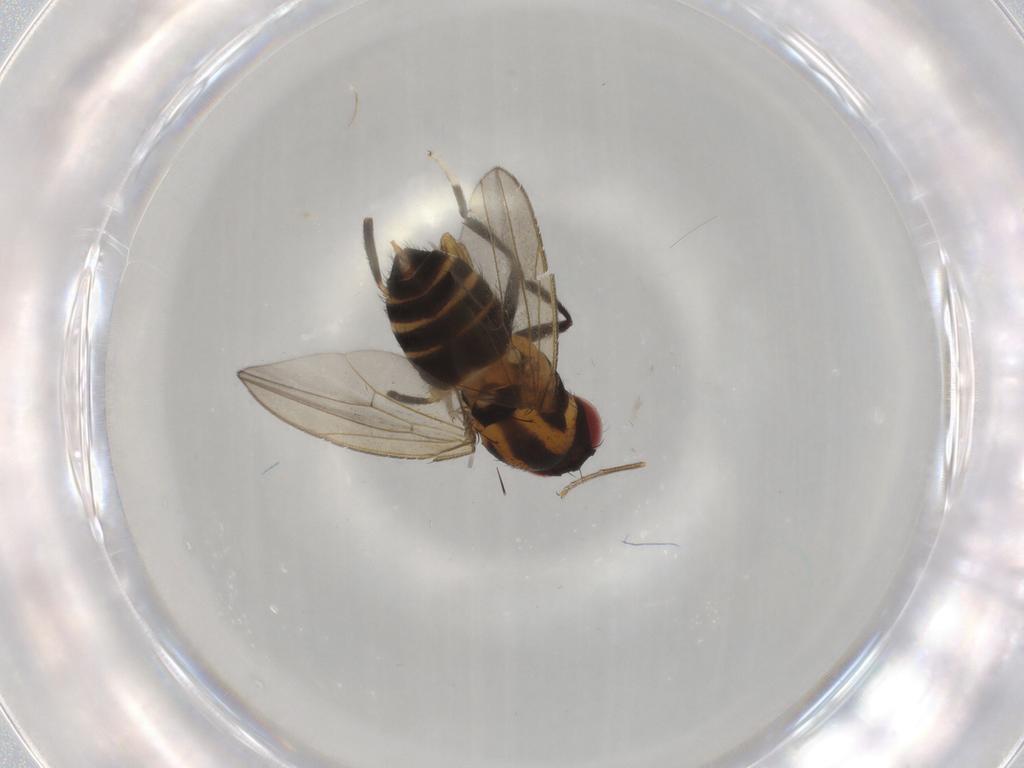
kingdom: Animalia
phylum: Arthropoda
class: Insecta
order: Diptera
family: Drosophilidae
